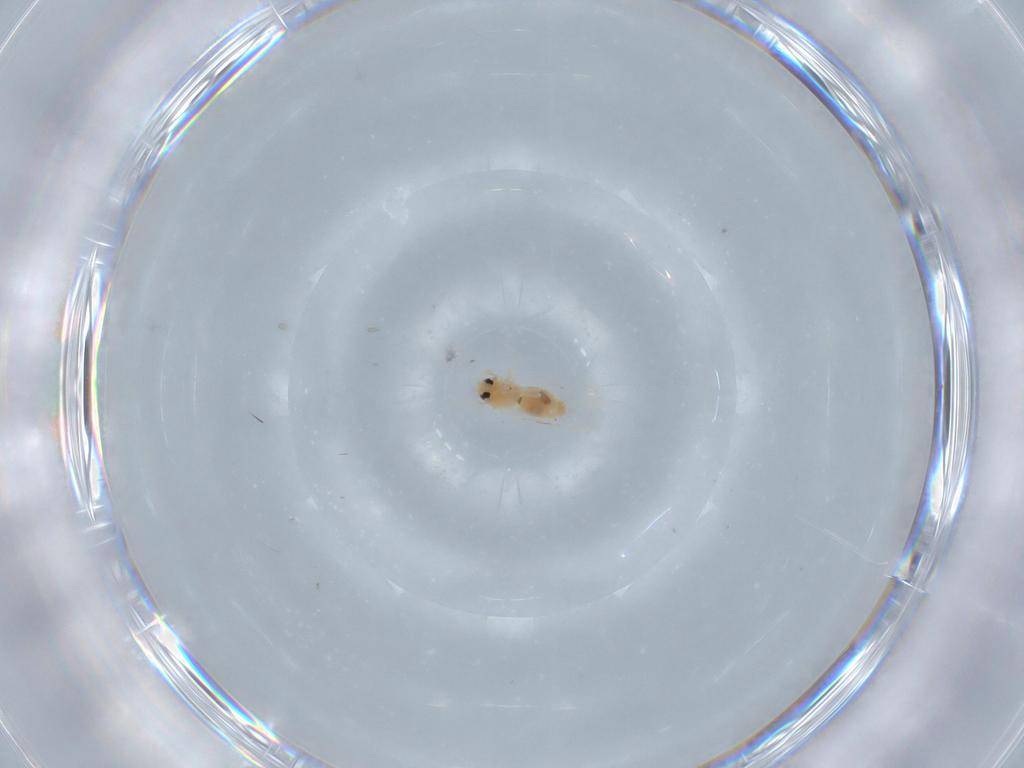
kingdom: Animalia
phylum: Arthropoda
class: Insecta
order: Hemiptera
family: Aleyrodidae
